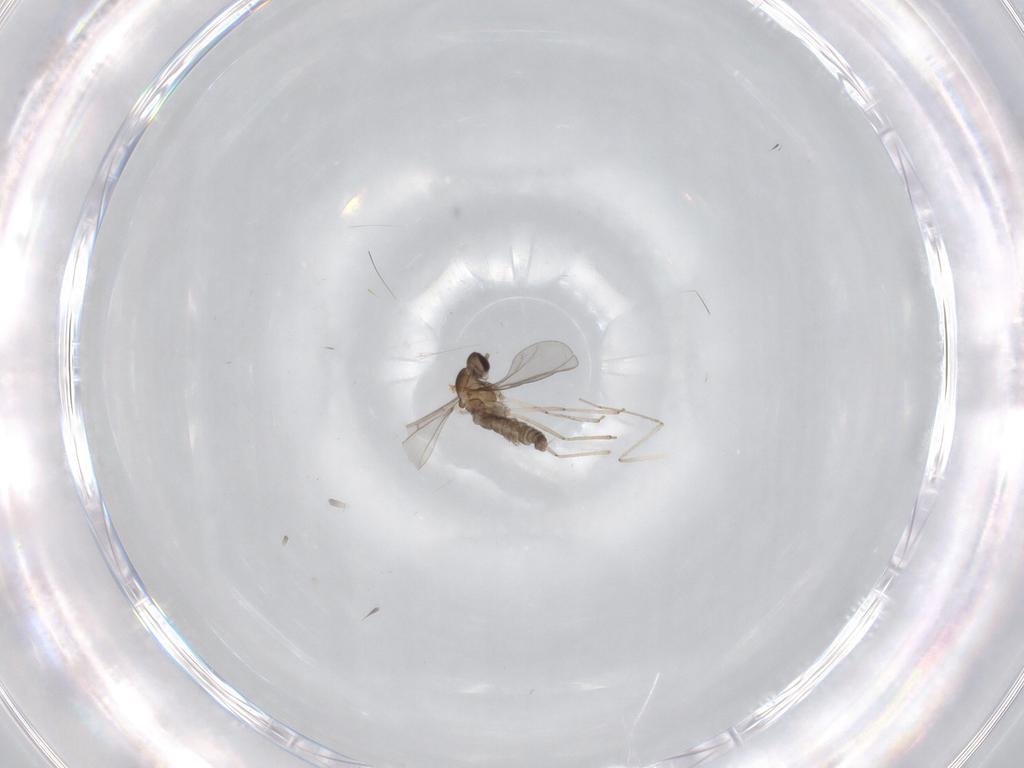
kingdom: Animalia
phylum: Arthropoda
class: Insecta
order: Diptera
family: Cecidomyiidae
